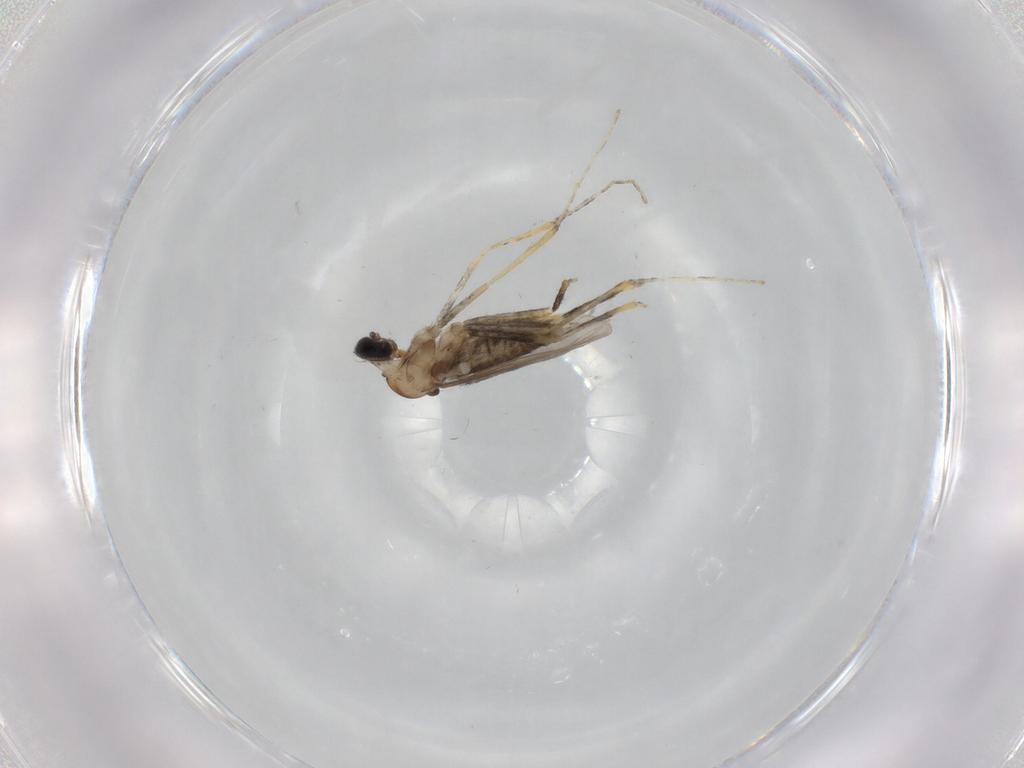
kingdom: Animalia
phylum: Arthropoda
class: Insecta
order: Diptera
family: Cecidomyiidae
